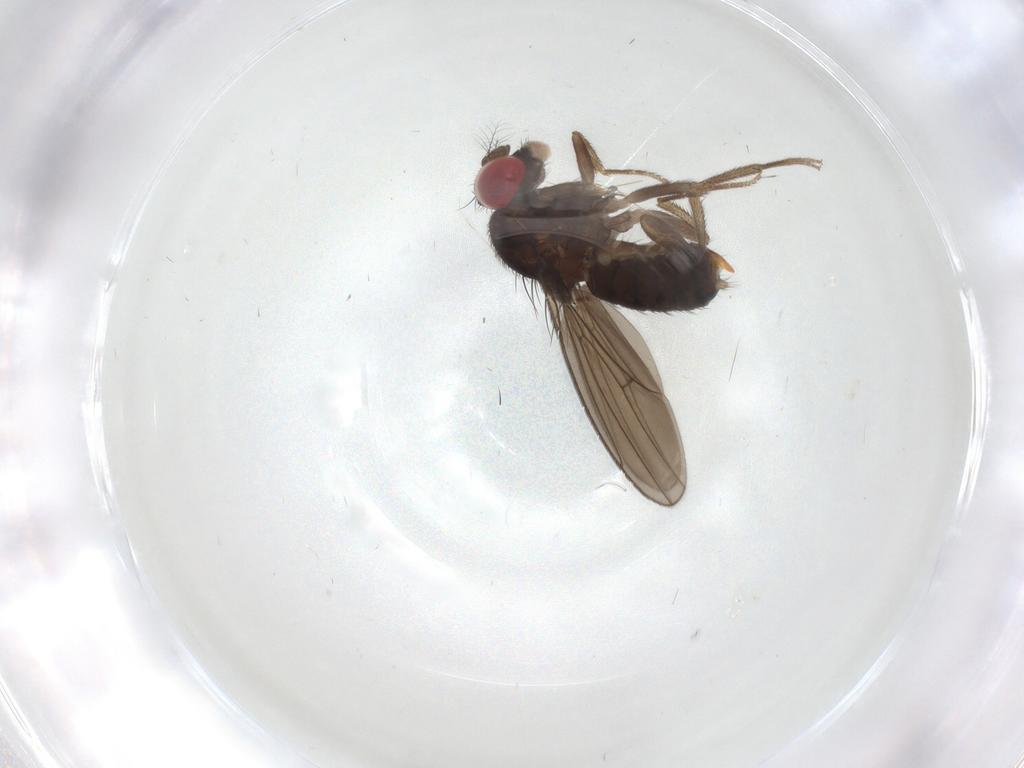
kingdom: Animalia
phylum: Arthropoda
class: Insecta
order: Diptera
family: Drosophilidae
